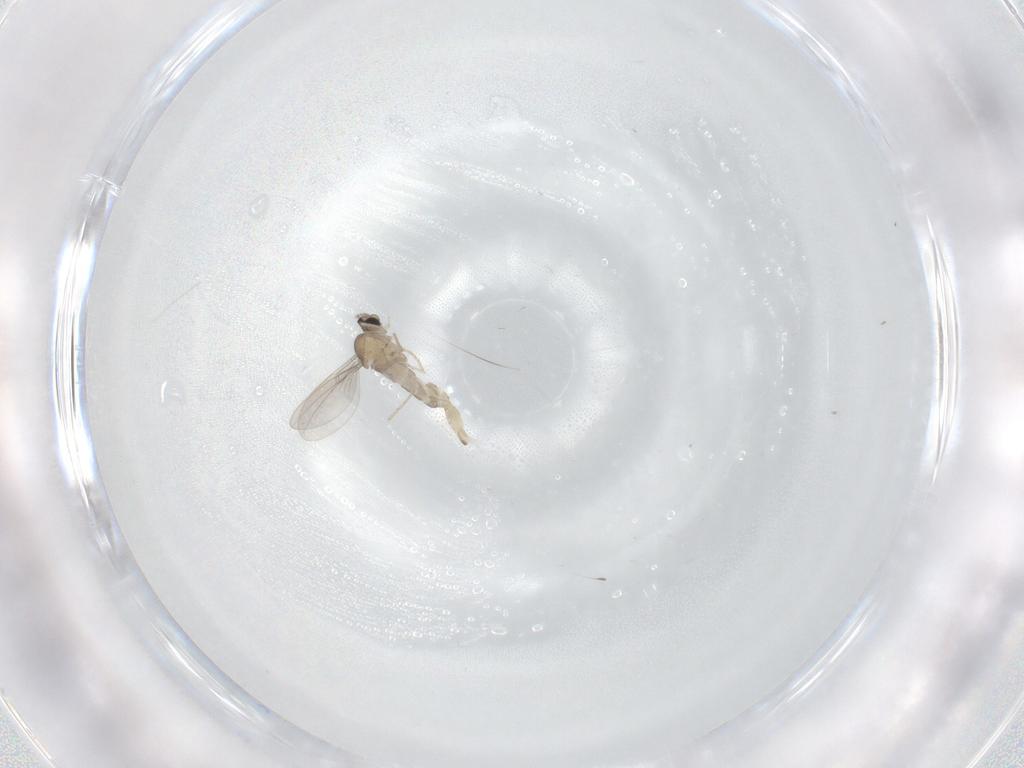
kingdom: Animalia
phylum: Arthropoda
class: Insecta
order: Diptera
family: Cecidomyiidae
